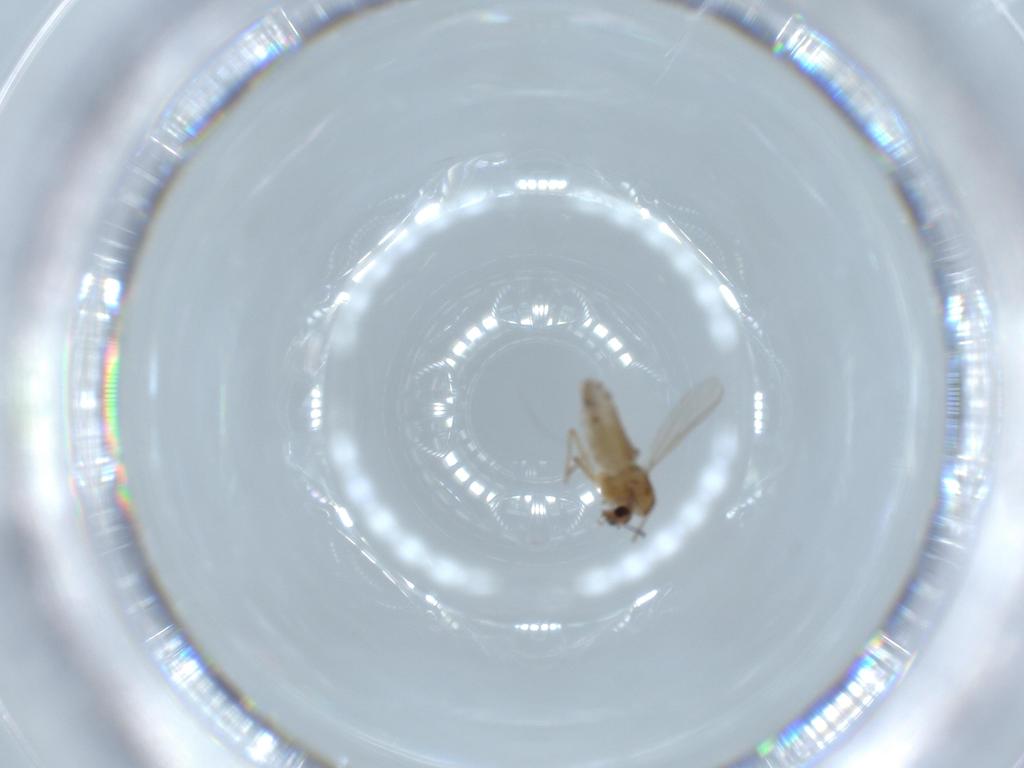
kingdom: Animalia
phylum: Arthropoda
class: Insecta
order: Diptera
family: Chironomidae
